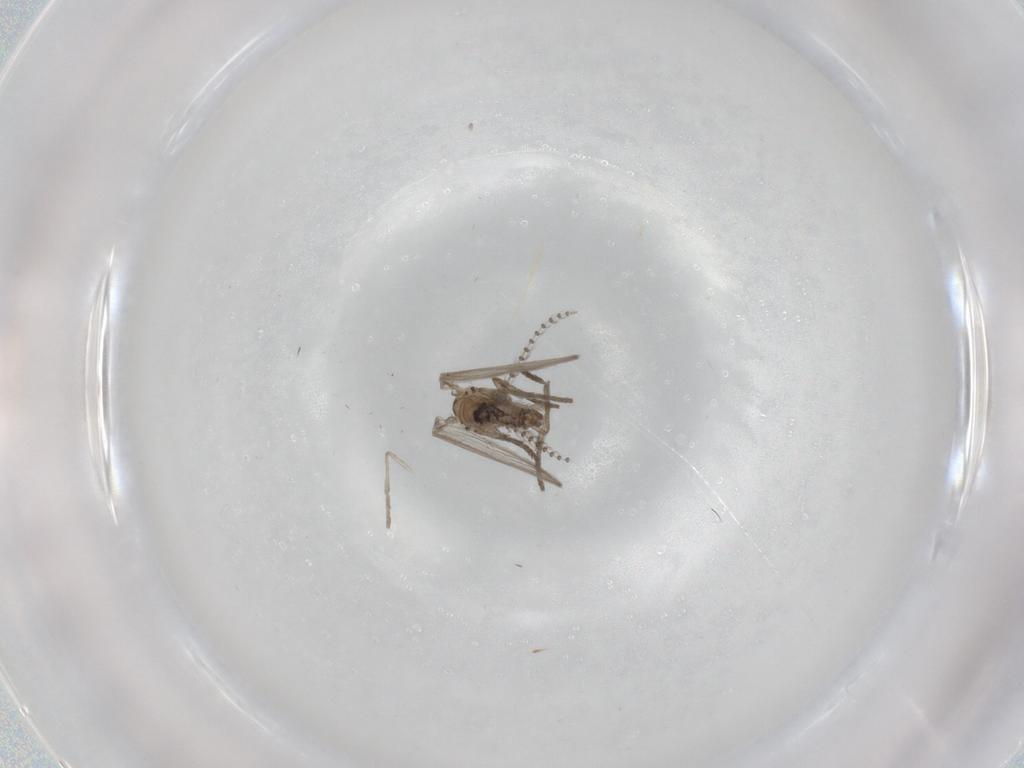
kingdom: Animalia
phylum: Arthropoda
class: Insecta
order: Diptera
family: Psychodidae
